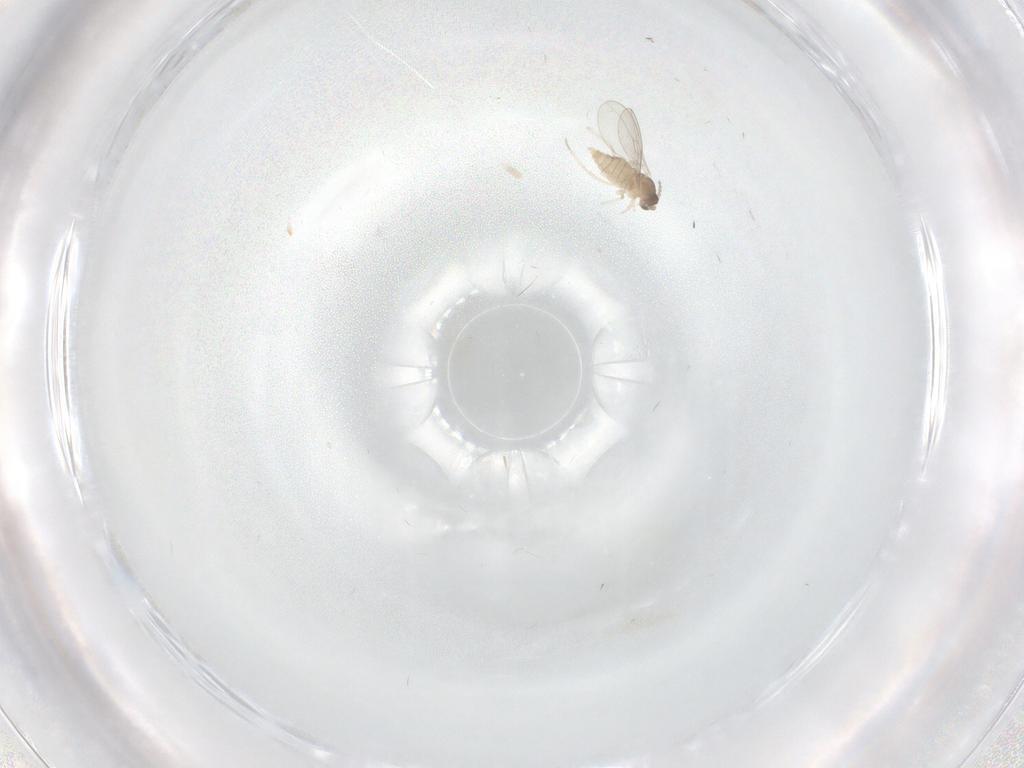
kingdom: Animalia
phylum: Arthropoda
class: Insecta
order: Diptera
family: Cecidomyiidae
